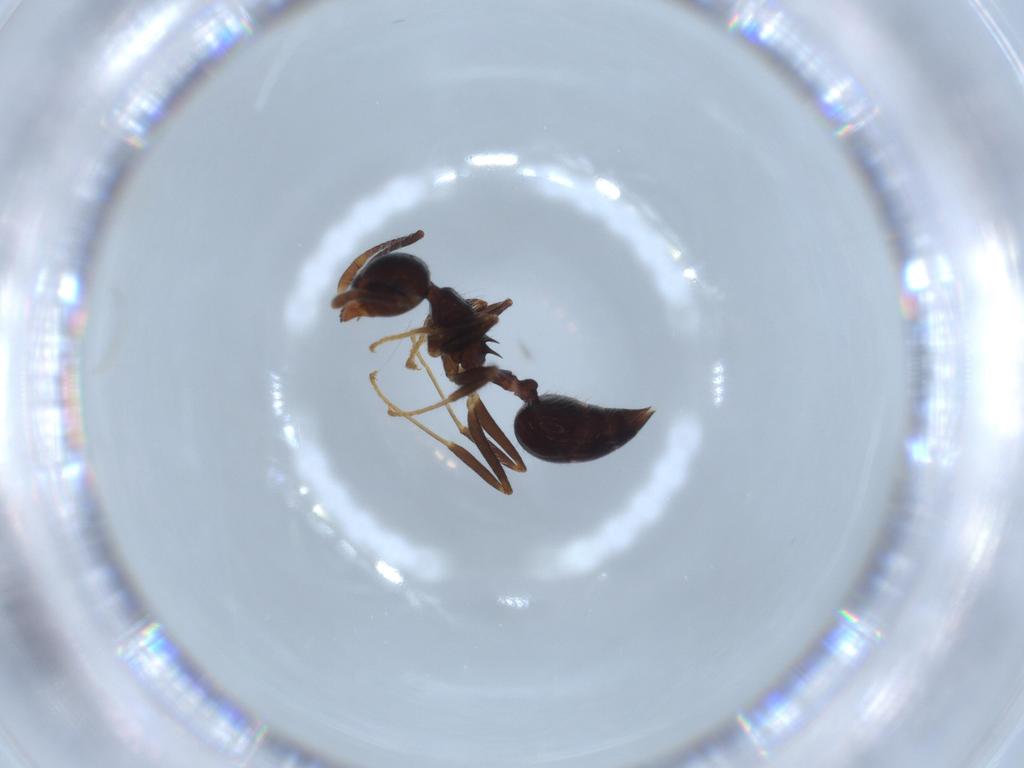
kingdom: Animalia
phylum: Arthropoda
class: Insecta
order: Hymenoptera
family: Formicidae
